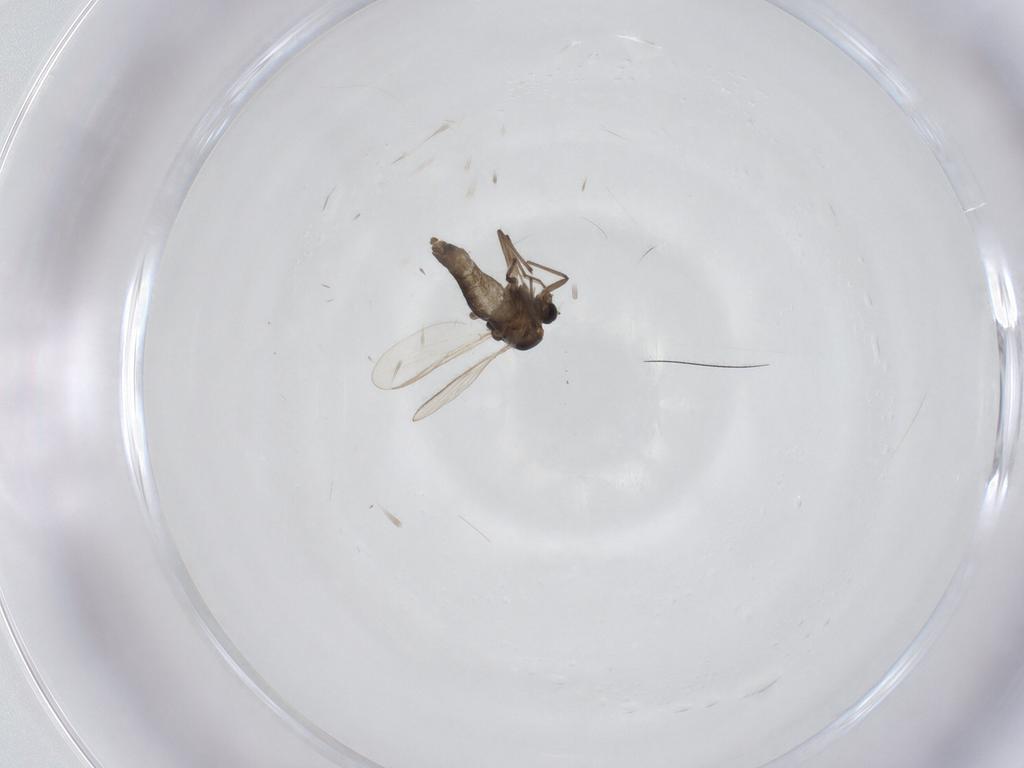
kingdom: Animalia
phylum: Arthropoda
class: Insecta
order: Diptera
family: Chironomidae
